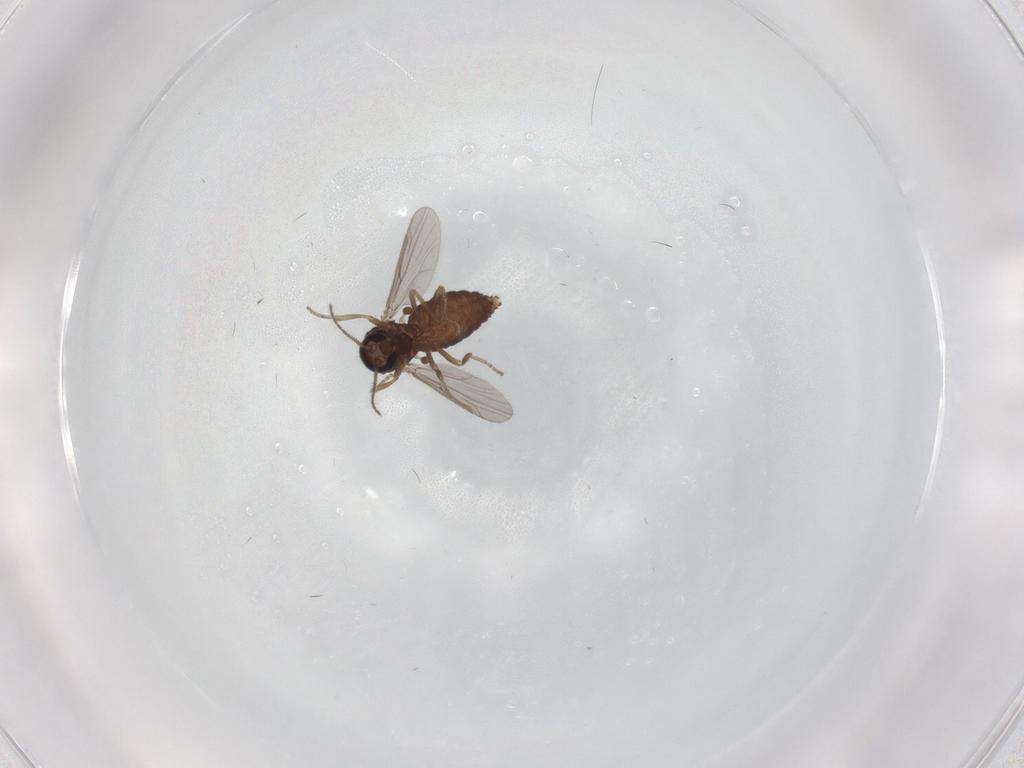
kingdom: Animalia
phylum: Arthropoda
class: Insecta
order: Diptera
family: Ceratopogonidae
